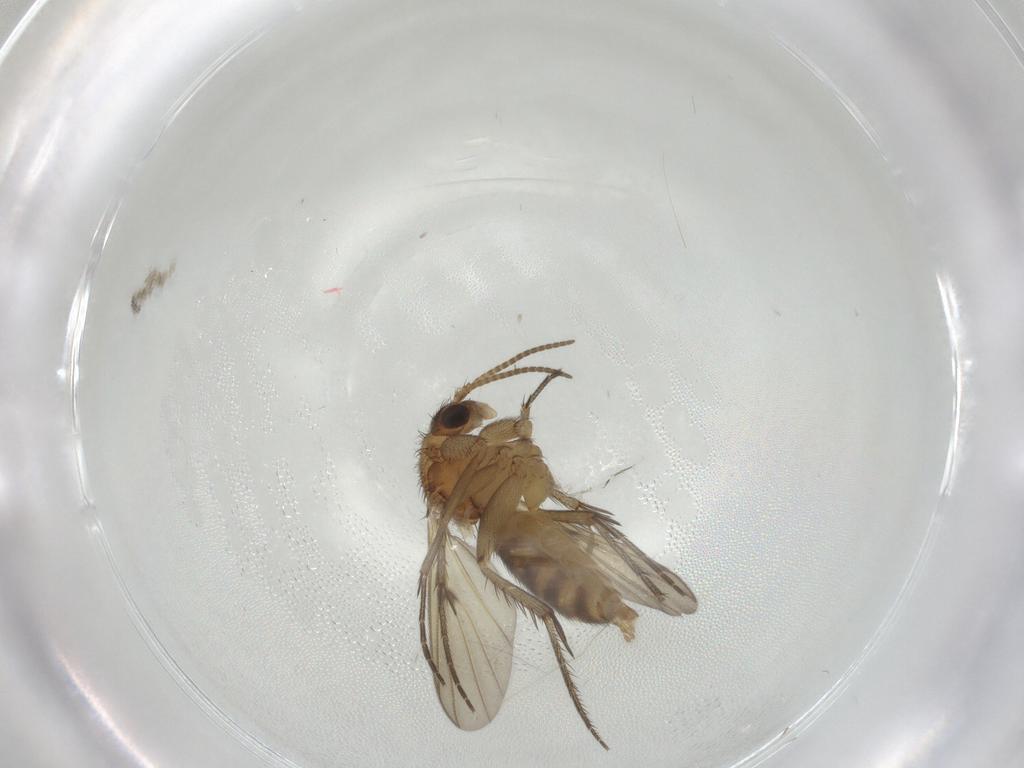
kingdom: Animalia
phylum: Arthropoda
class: Insecta
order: Diptera
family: Mycetophilidae
